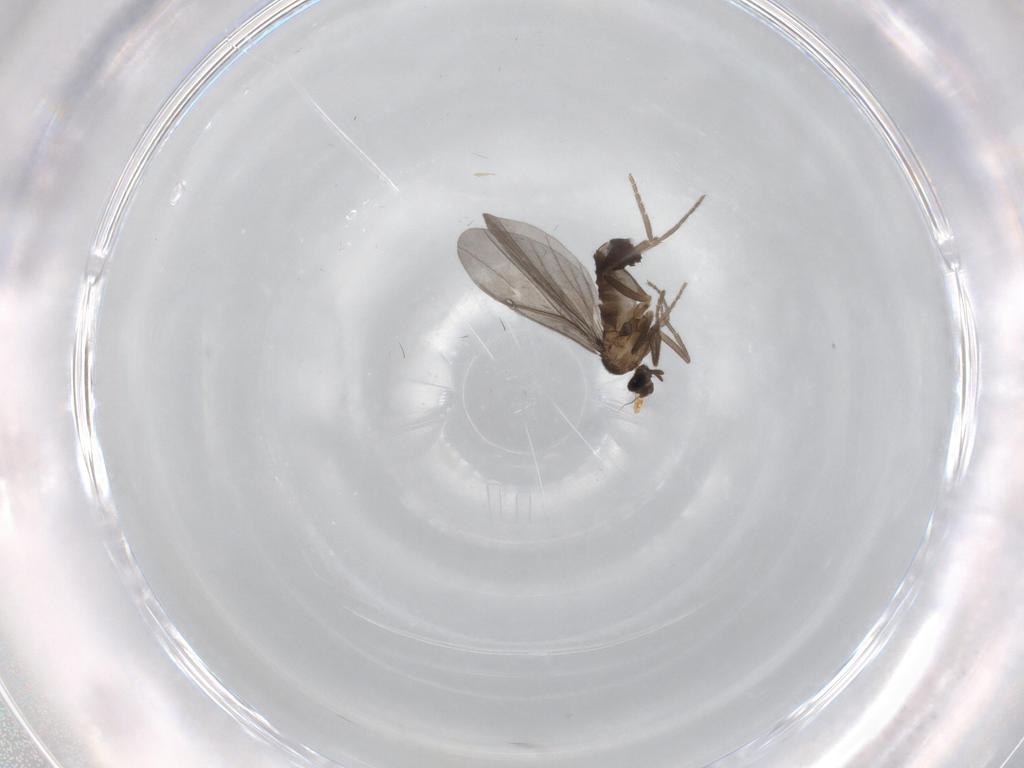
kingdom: Animalia
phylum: Arthropoda
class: Insecta
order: Diptera
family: Phoridae
